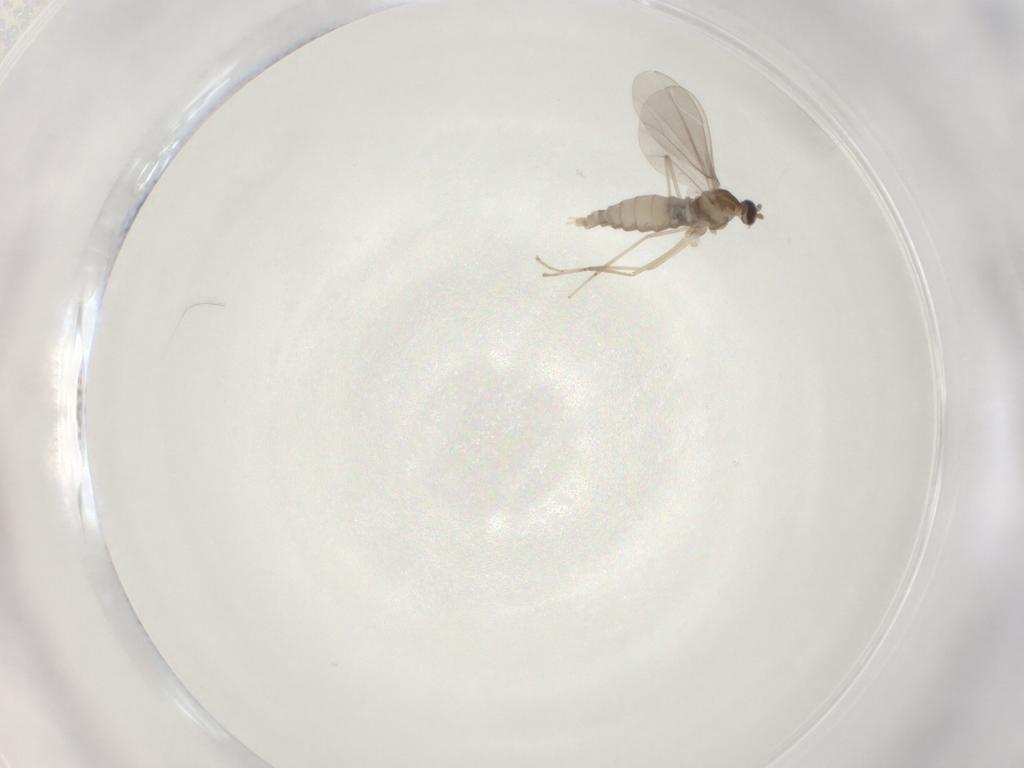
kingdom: Animalia
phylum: Arthropoda
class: Insecta
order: Diptera
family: Cecidomyiidae
